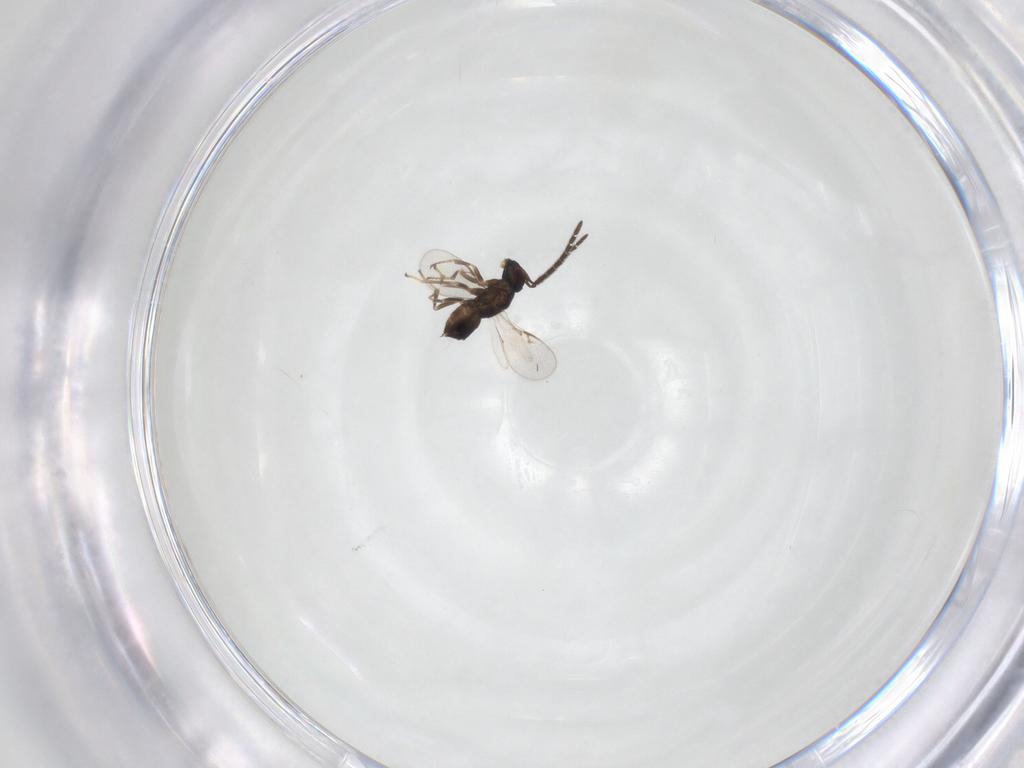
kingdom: Animalia
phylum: Arthropoda
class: Insecta
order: Hymenoptera
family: Encyrtidae
